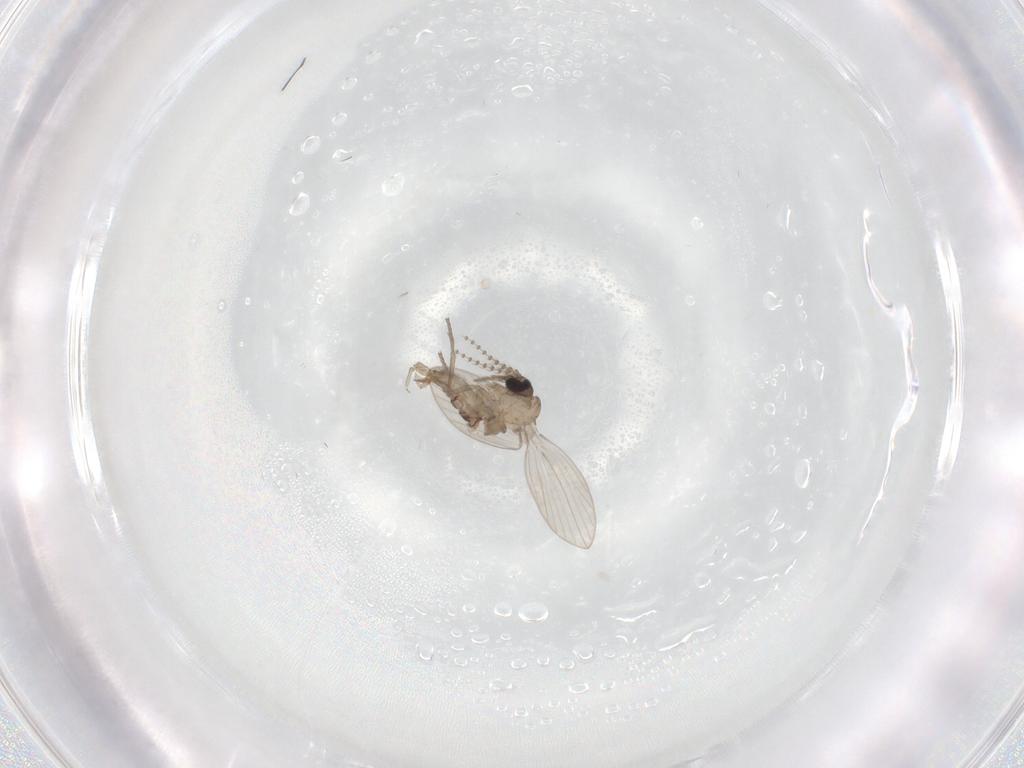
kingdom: Animalia
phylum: Arthropoda
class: Insecta
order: Diptera
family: Psychodidae
